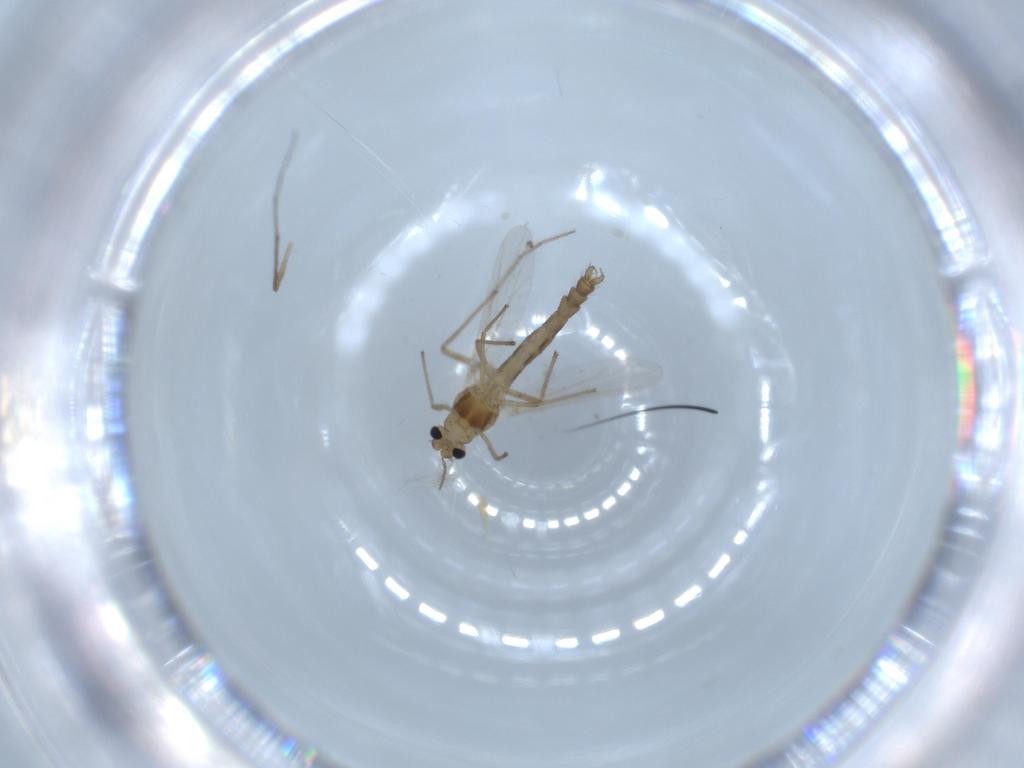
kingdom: Animalia
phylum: Arthropoda
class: Insecta
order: Diptera
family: Chironomidae
